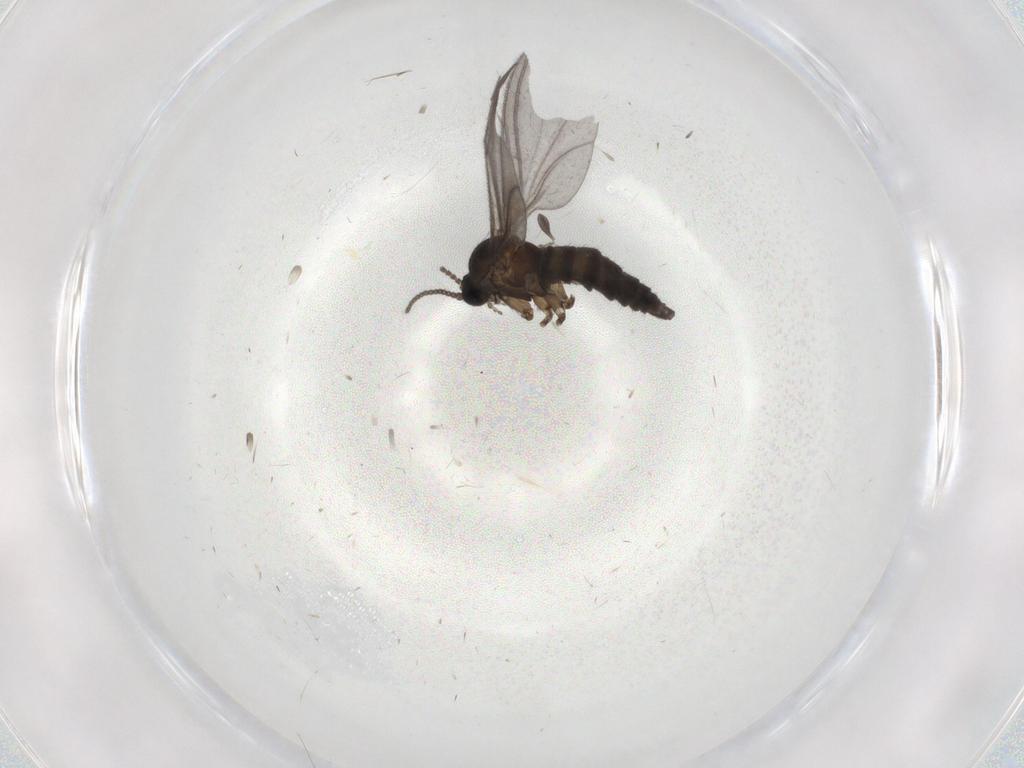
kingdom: Animalia
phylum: Arthropoda
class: Insecta
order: Diptera
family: Sciaridae
